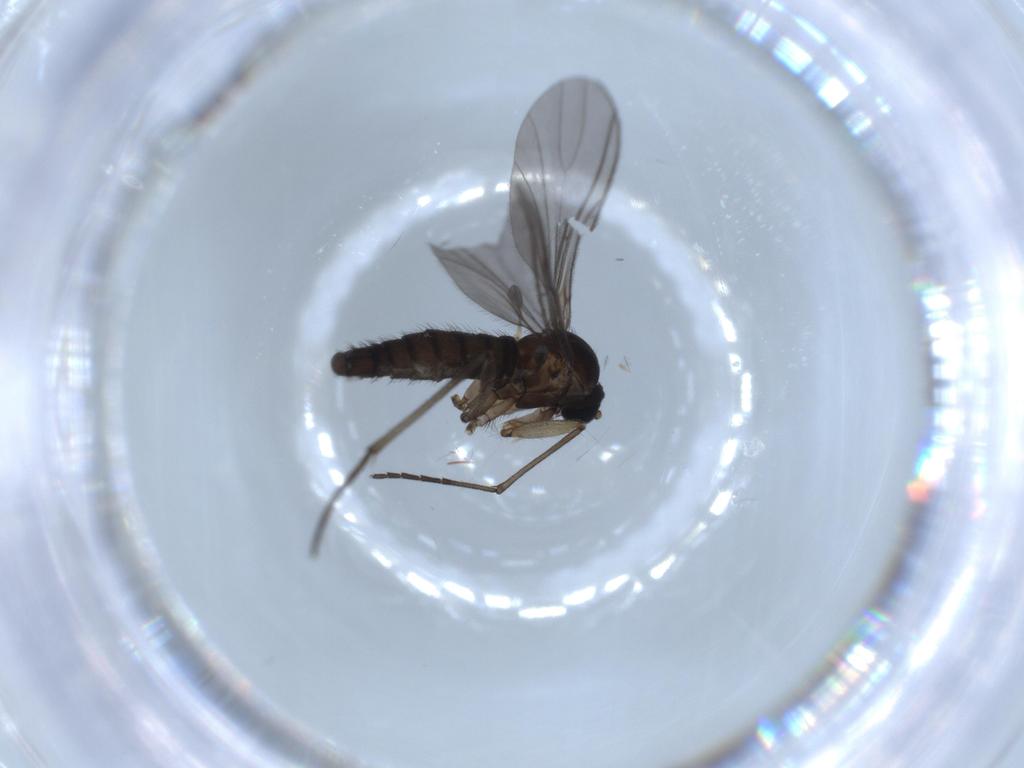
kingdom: Animalia
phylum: Arthropoda
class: Insecta
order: Diptera
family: Sciaridae
